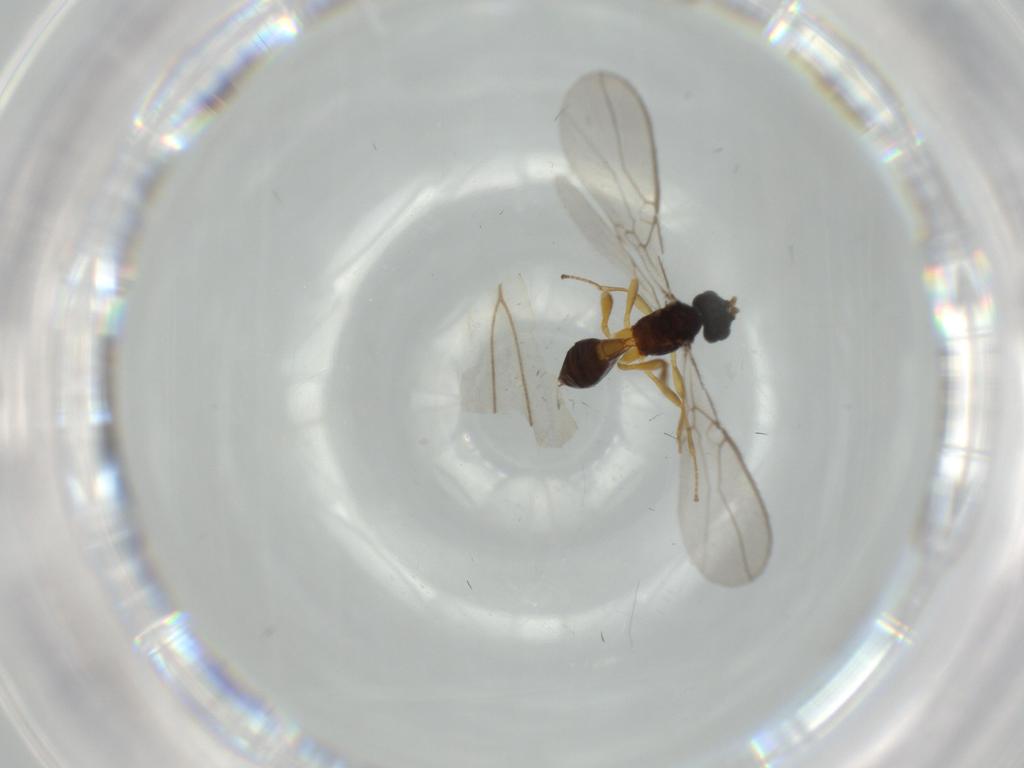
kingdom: Animalia
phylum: Arthropoda
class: Insecta
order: Hymenoptera
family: Braconidae
